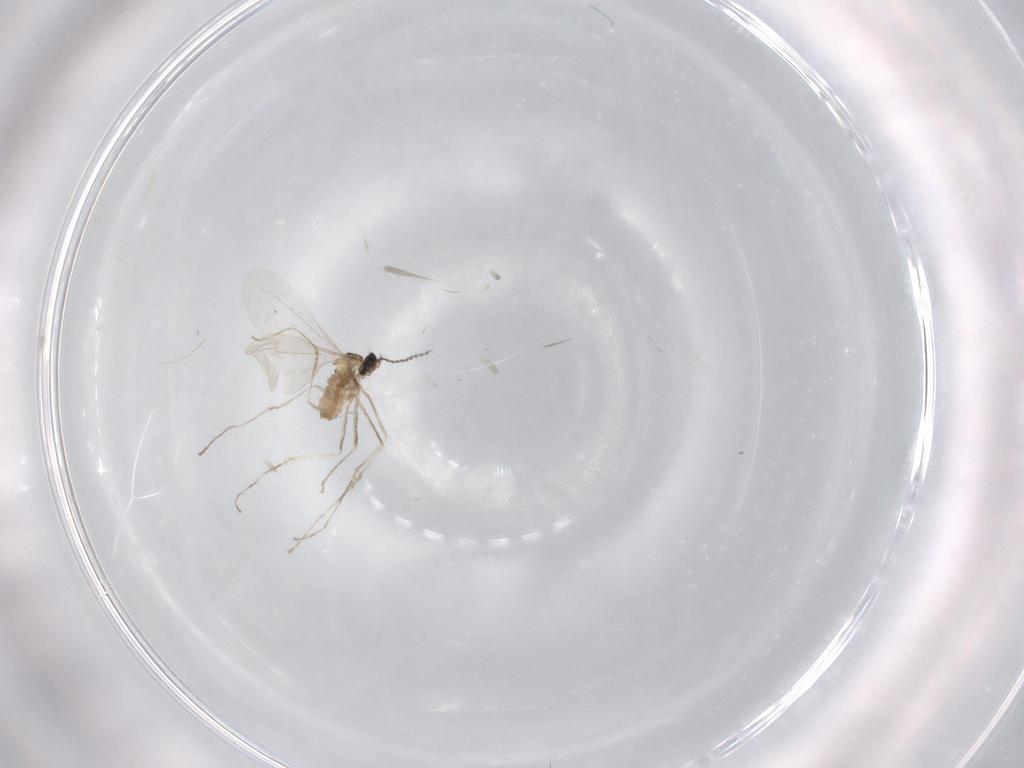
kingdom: Animalia
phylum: Arthropoda
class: Insecta
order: Diptera
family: Cecidomyiidae
